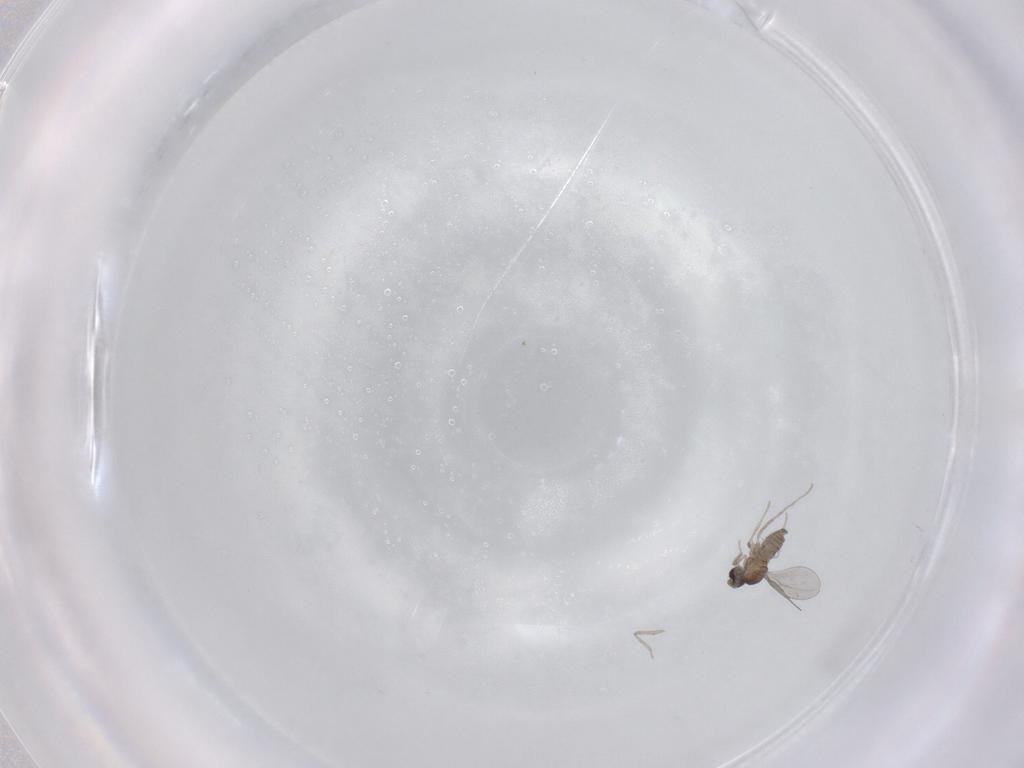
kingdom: Animalia
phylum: Arthropoda
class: Insecta
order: Diptera
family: Cecidomyiidae
